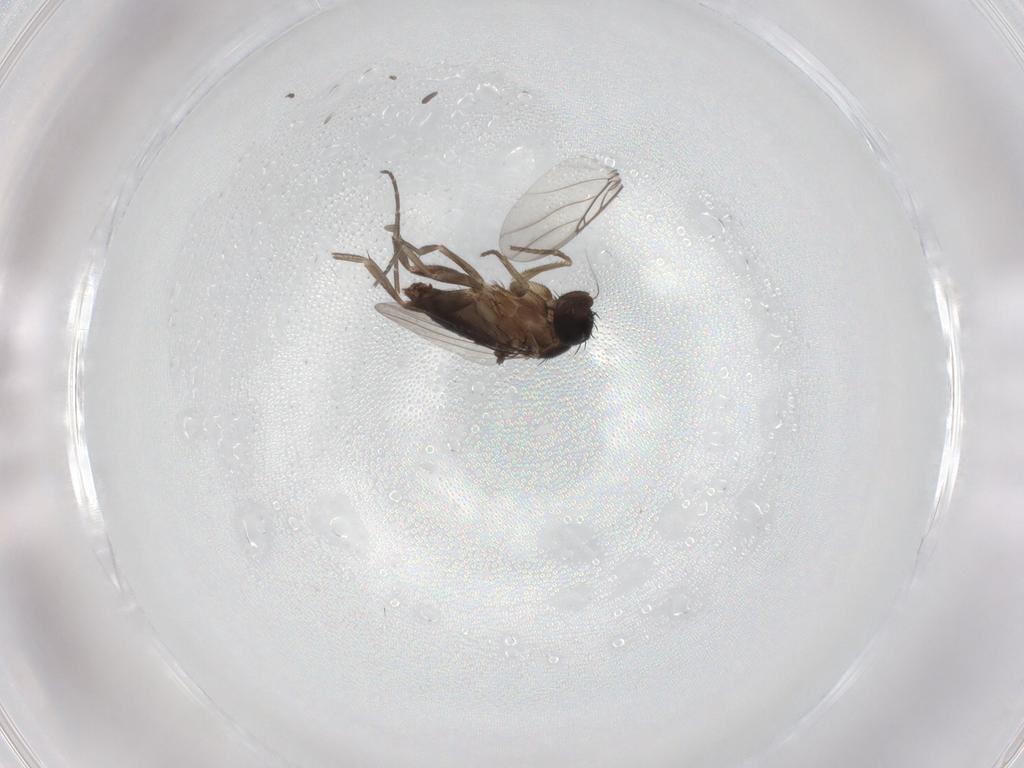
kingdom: Animalia
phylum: Arthropoda
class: Insecta
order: Diptera
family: Phoridae
